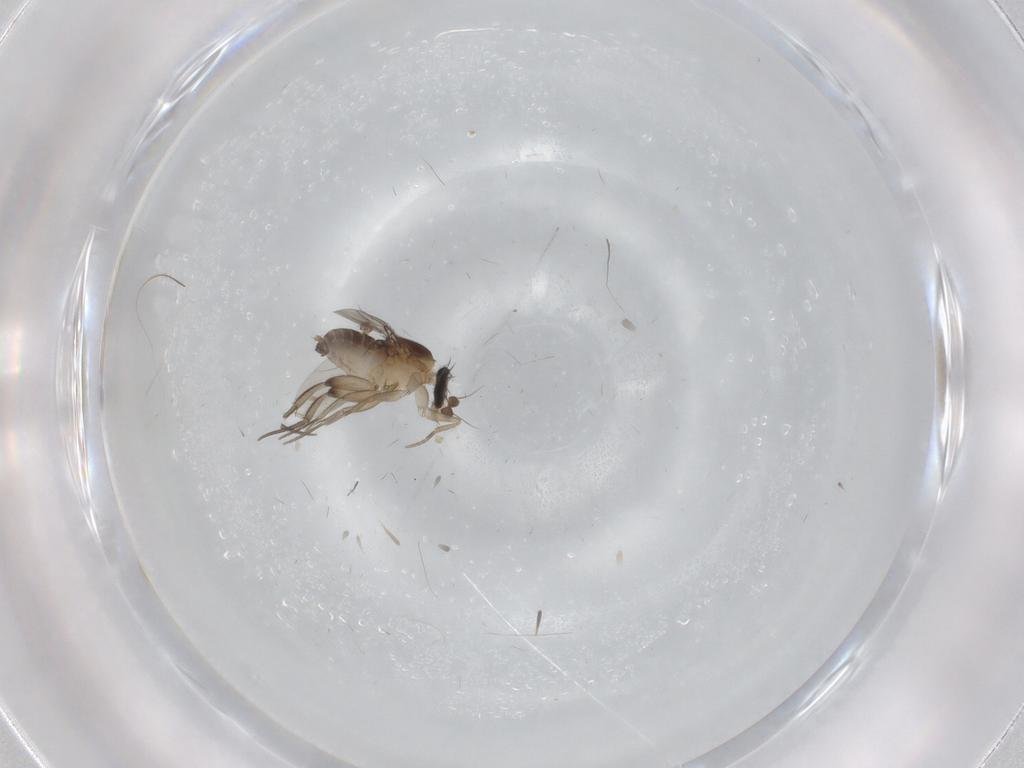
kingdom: Animalia
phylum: Arthropoda
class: Insecta
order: Diptera
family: Phoridae
